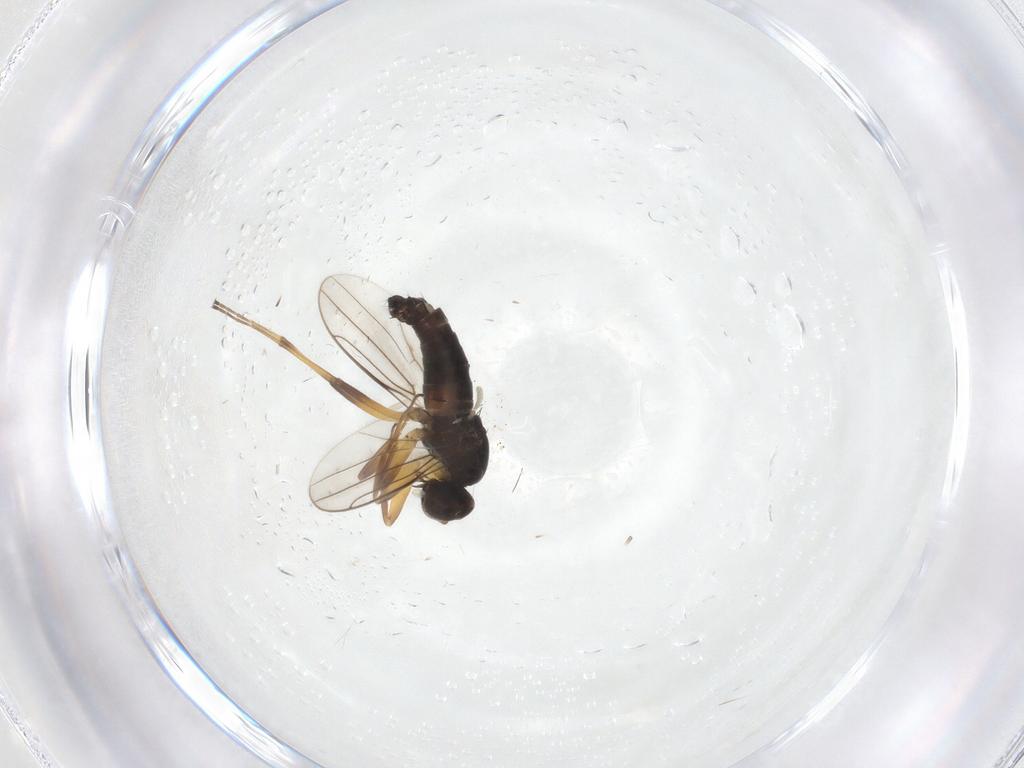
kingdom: Animalia
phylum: Arthropoda
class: Insecta
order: Diptera
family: Hybotidae
